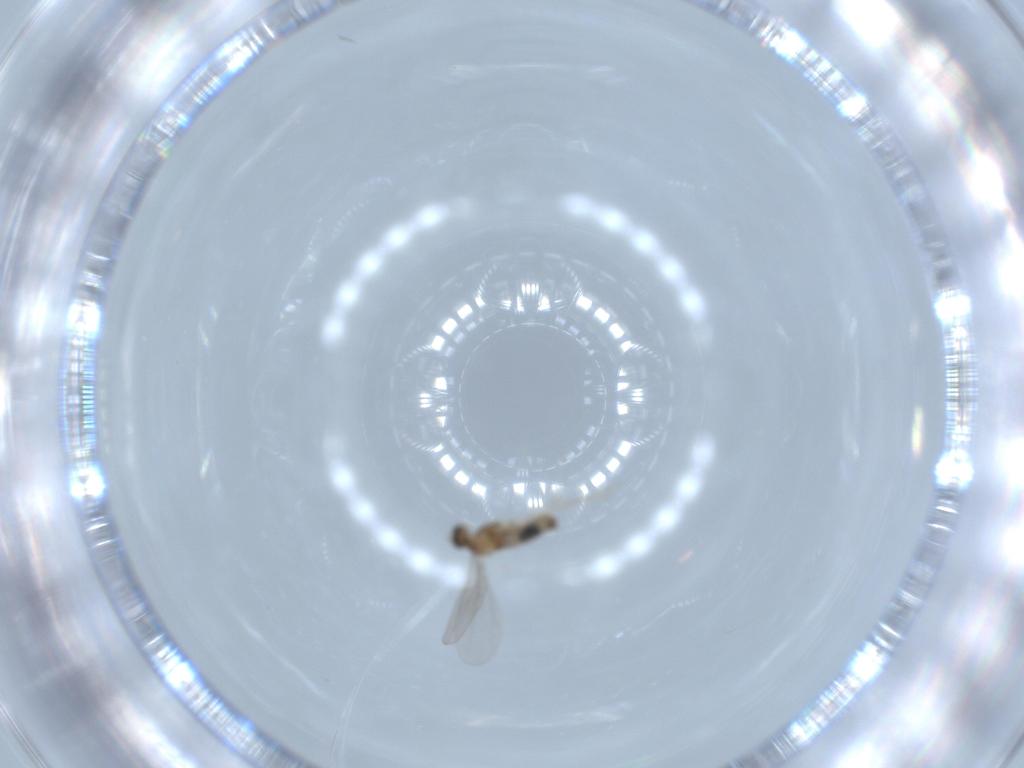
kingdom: Animalia
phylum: Arthropoda
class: Insecta
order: Diptera
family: Cecidomyiidae
